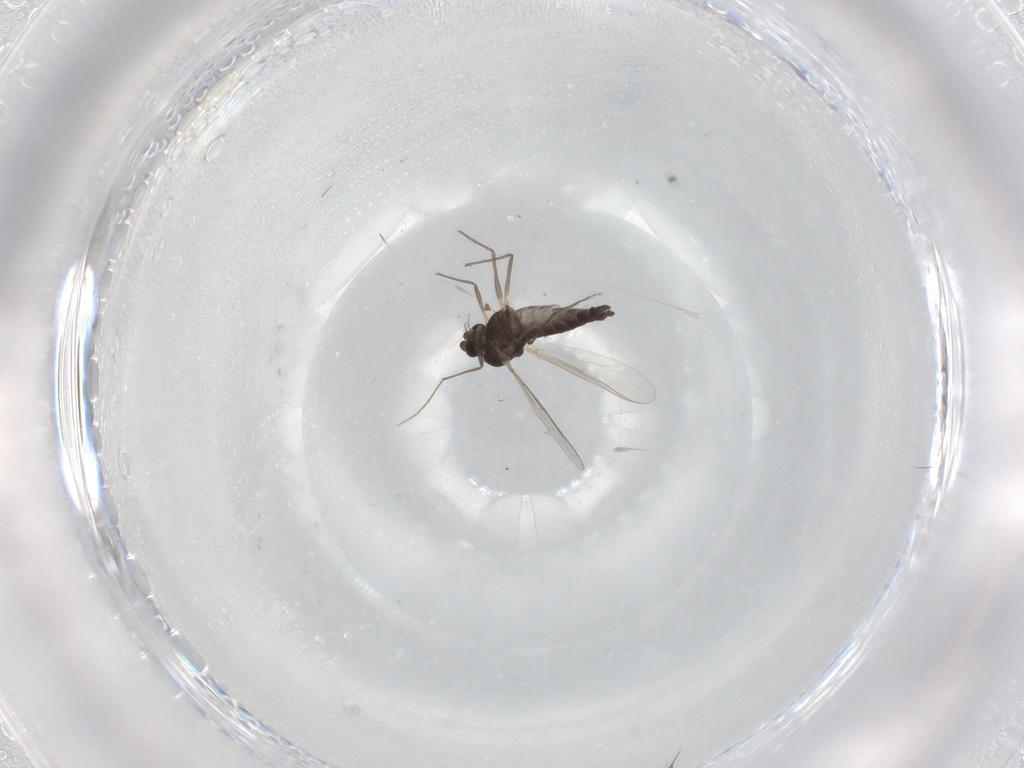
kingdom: Animalia
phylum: Arthropoda
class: Insecta
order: Diptera
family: Chironomidae
